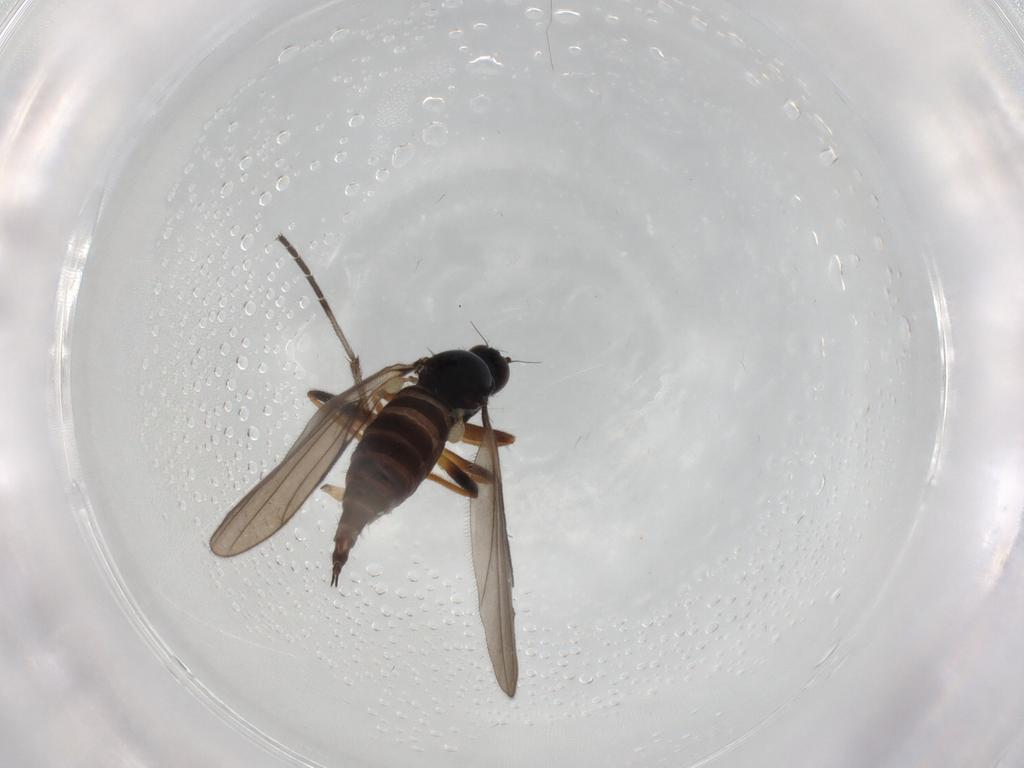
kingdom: Animalia
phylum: Arthropoda
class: Insecta
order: Diptera
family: Hybotidae
